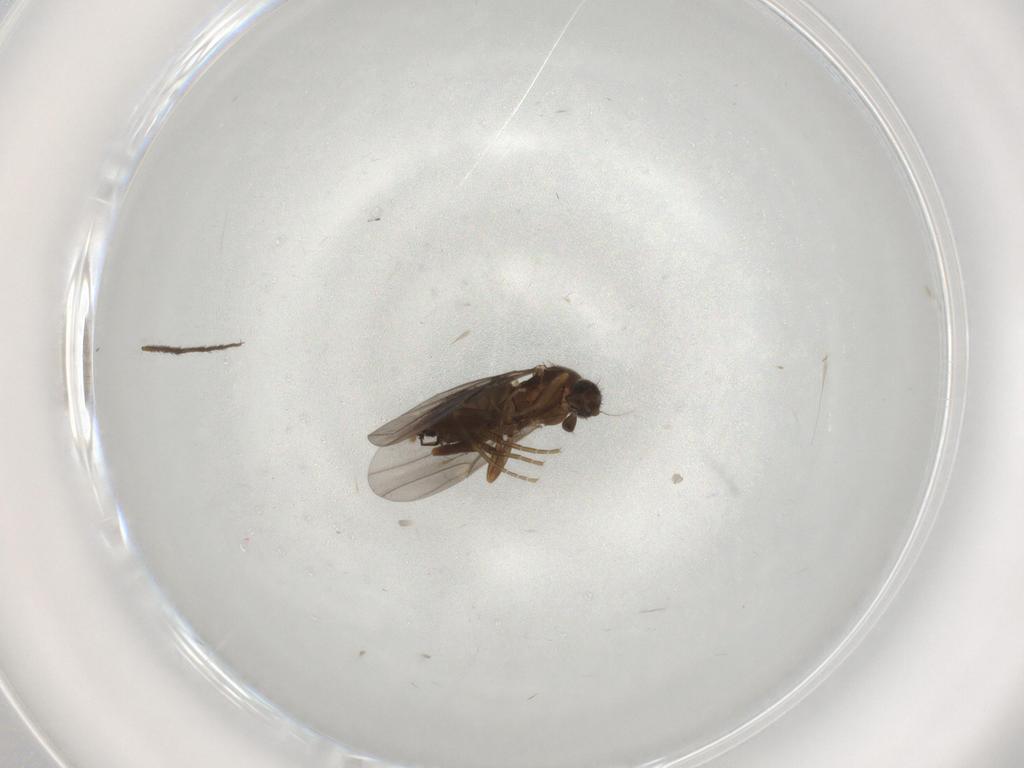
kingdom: Animalia
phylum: Arthropoda
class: Insecta
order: Diptera
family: Phoridae
